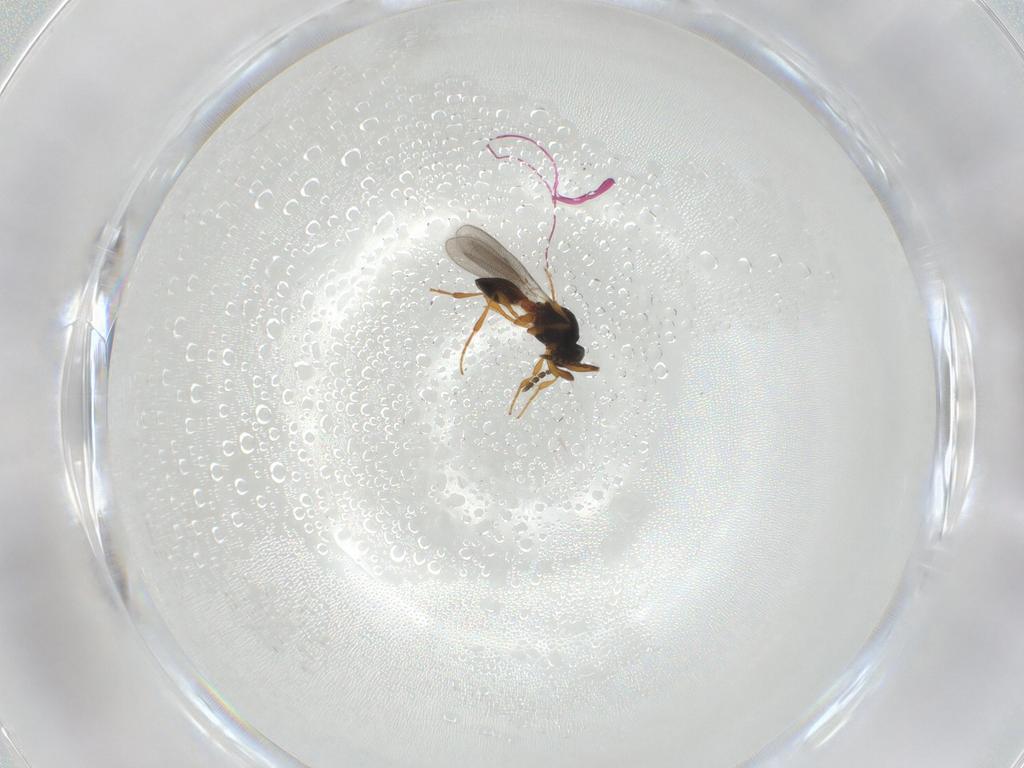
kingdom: Animalia
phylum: Arthropoda
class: Insecta
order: Hymenoptera
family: Platygastridae
